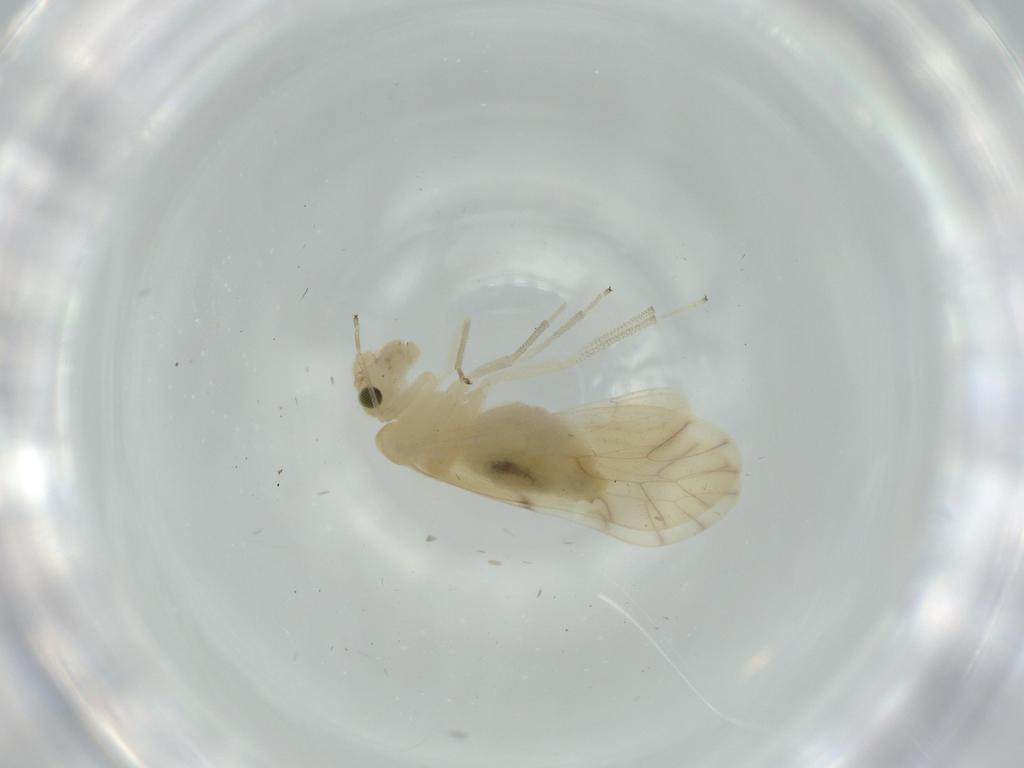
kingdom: Animalia
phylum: Arthropoda
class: Insecta
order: Psocodea
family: Caeciliusidae
